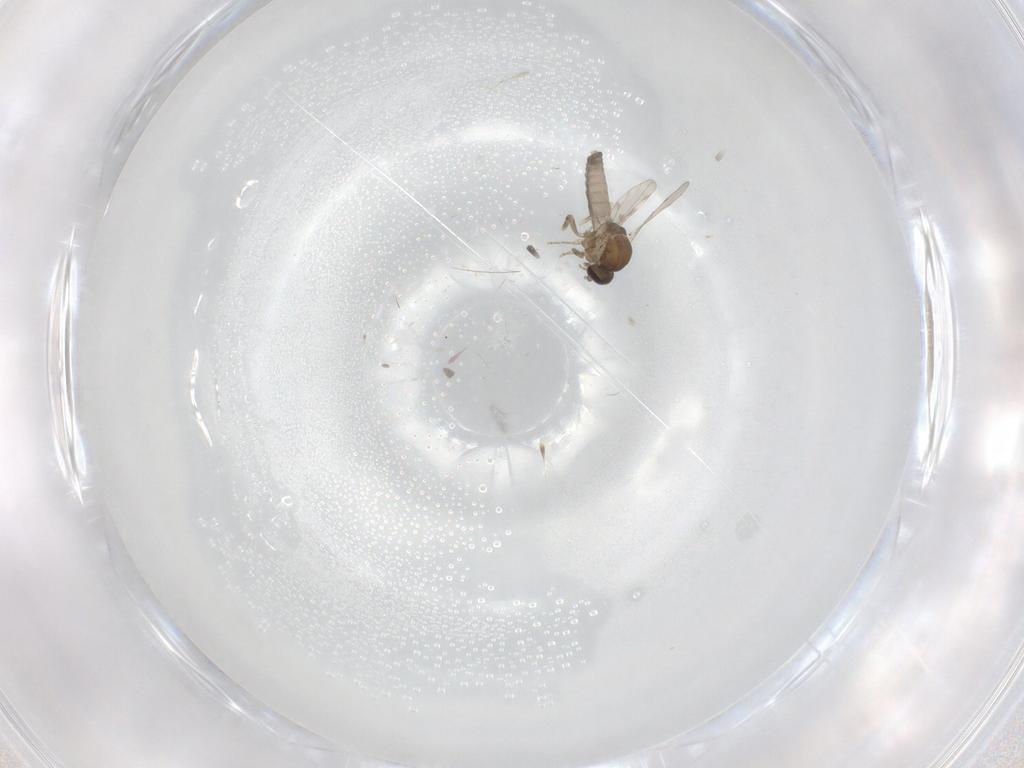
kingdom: Animalia
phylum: Arthropoda
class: Insecta
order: Diptera
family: Ceratopogonidae
